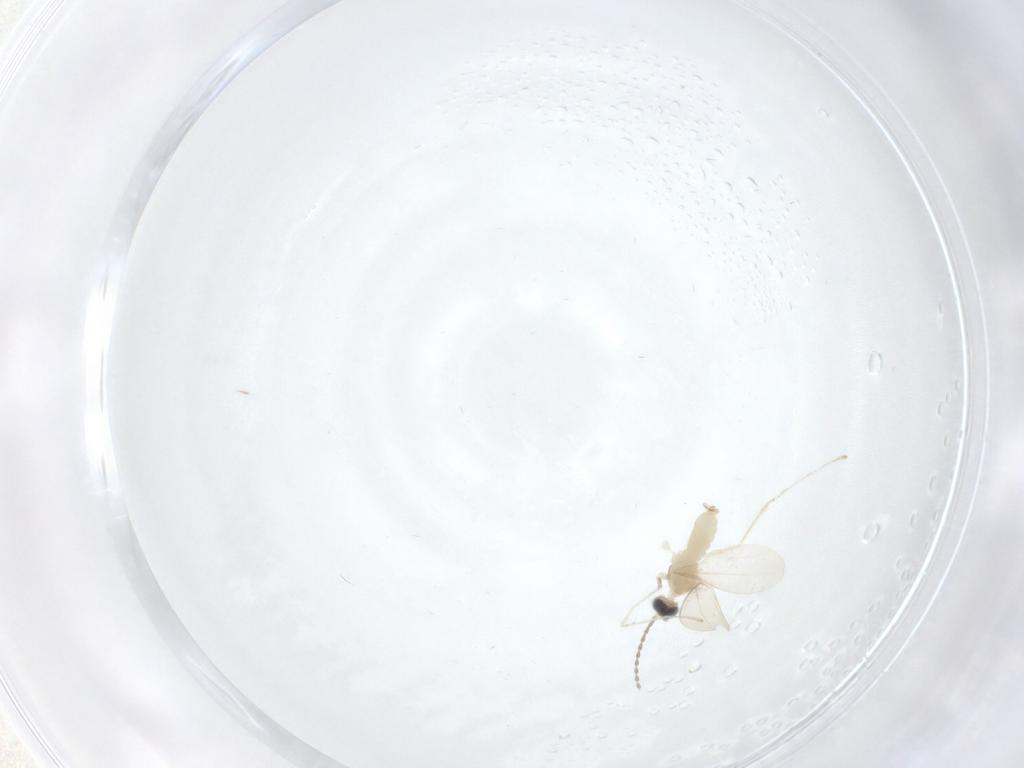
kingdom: Animalia
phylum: Arthropoda
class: Insecta
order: Diptera
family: Cecidomyiidae
